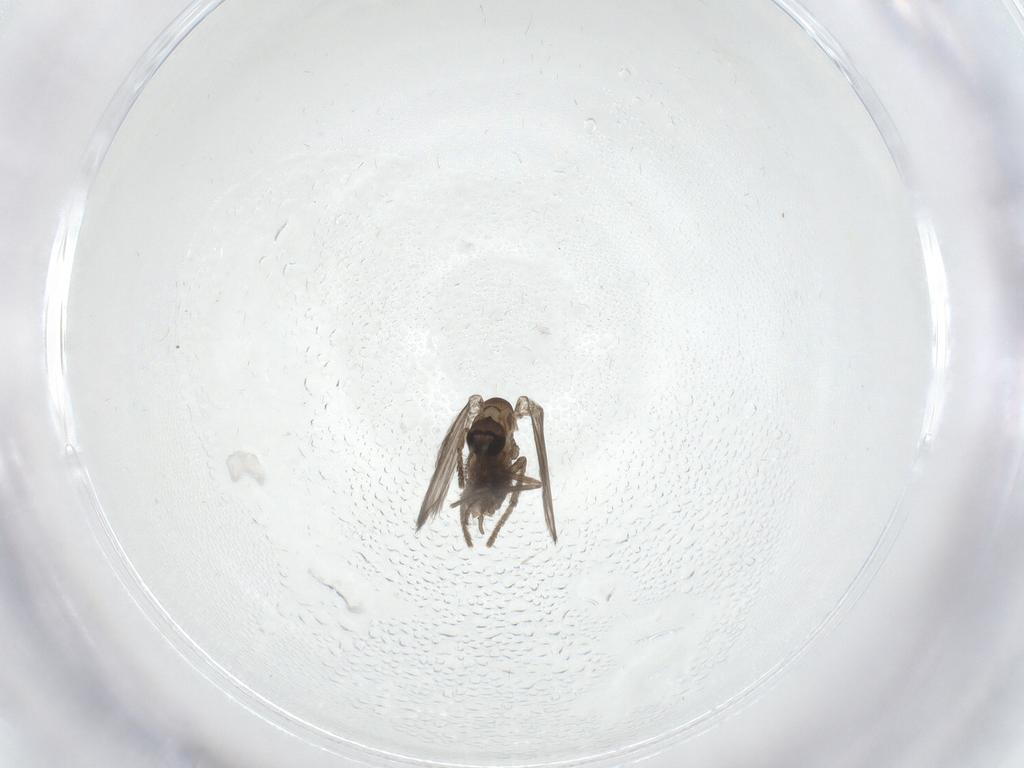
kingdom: Animalia
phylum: Arthropoda
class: Insecta
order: Diptera
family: Psychodidae
